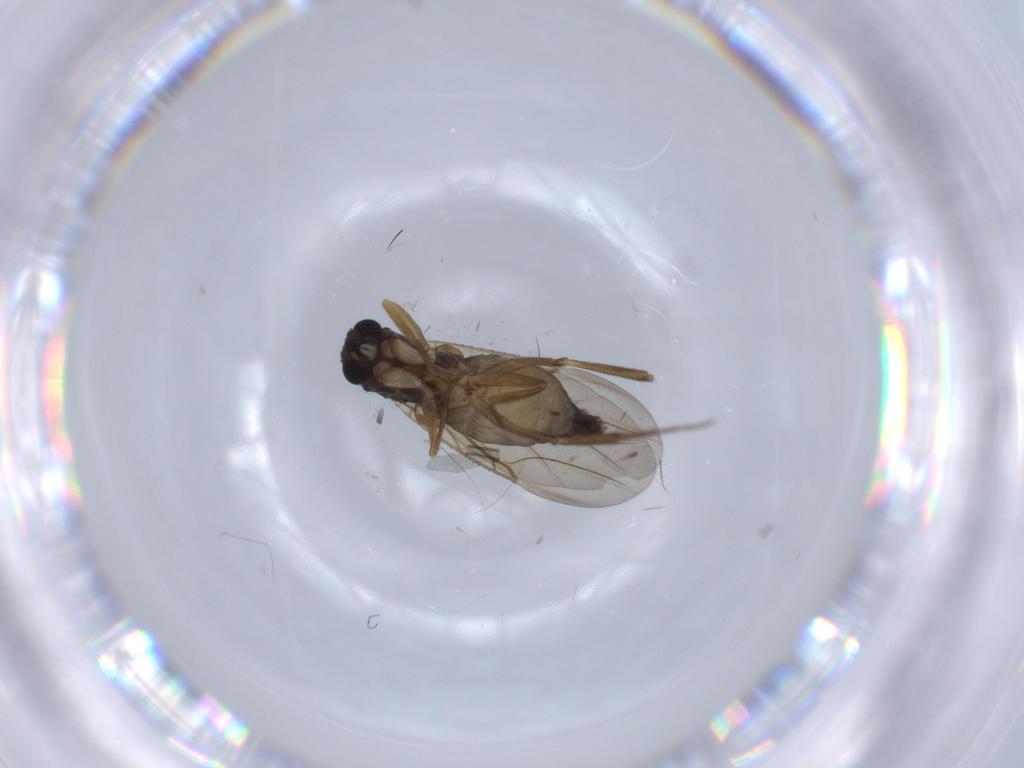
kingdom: Animalia
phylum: Arthropoda
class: Insecta
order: Diptera
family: Phoridae
